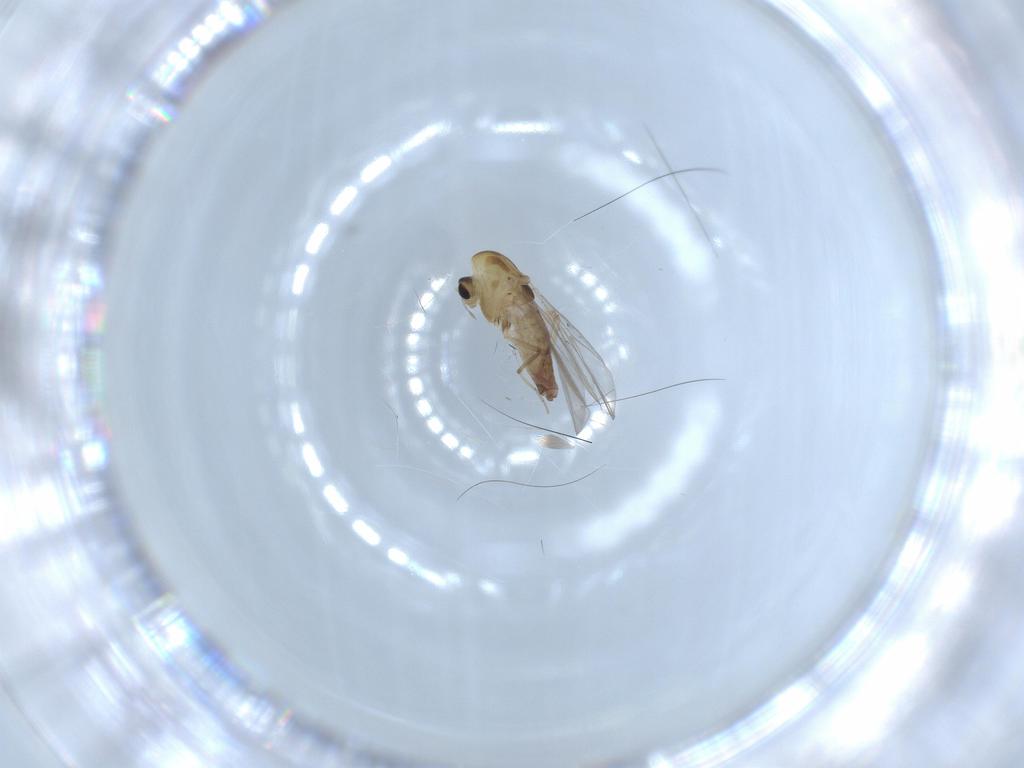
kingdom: Animalia
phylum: Arthropoda
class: Insecta
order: Diptera
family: Chironomidae
